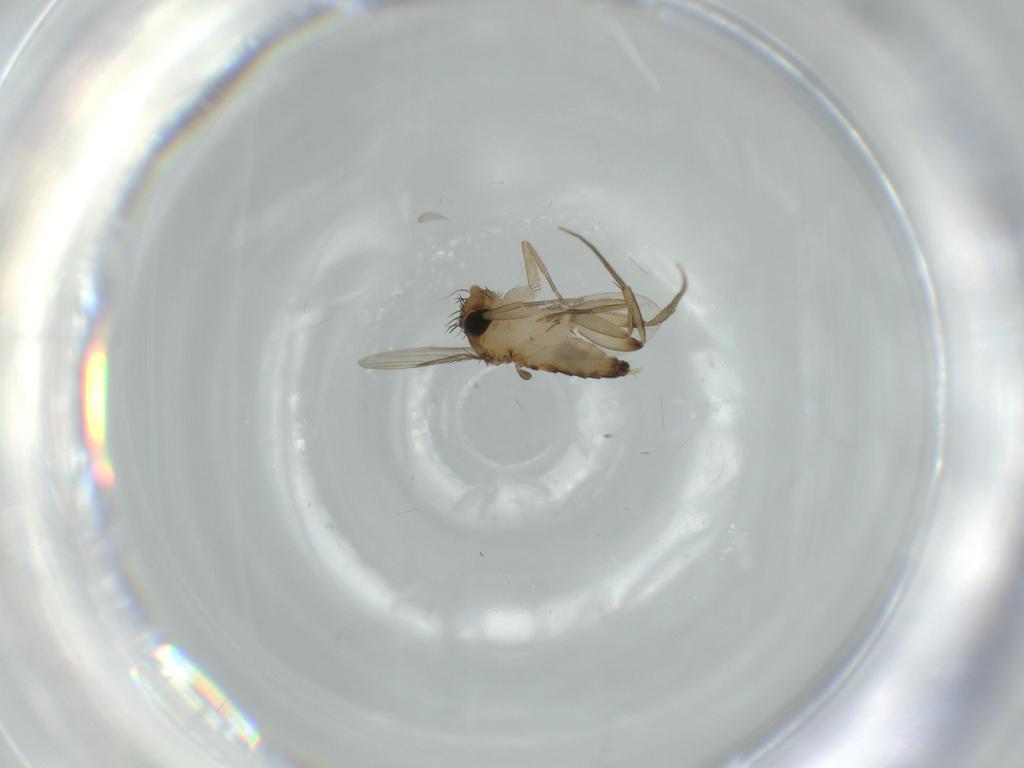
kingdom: Animalia
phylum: Arthropoda
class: Insecta
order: Diptera
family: Phoridae
